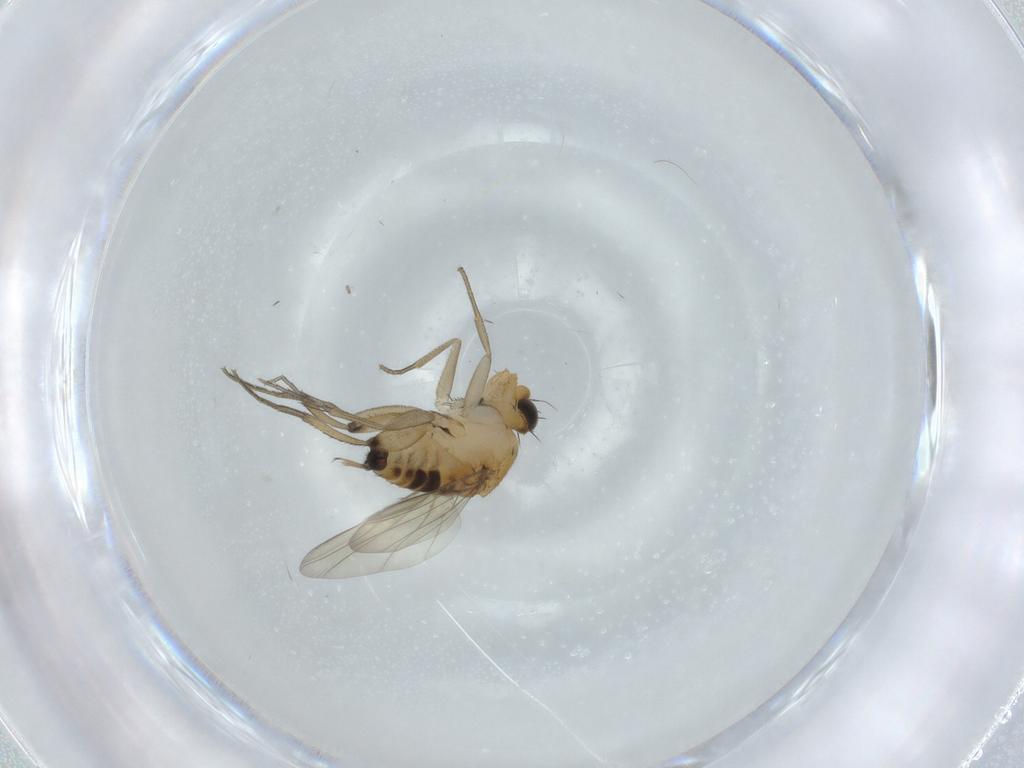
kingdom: Animalia
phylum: Arthropoda
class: Insecta
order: Diptera
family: Phoridae
